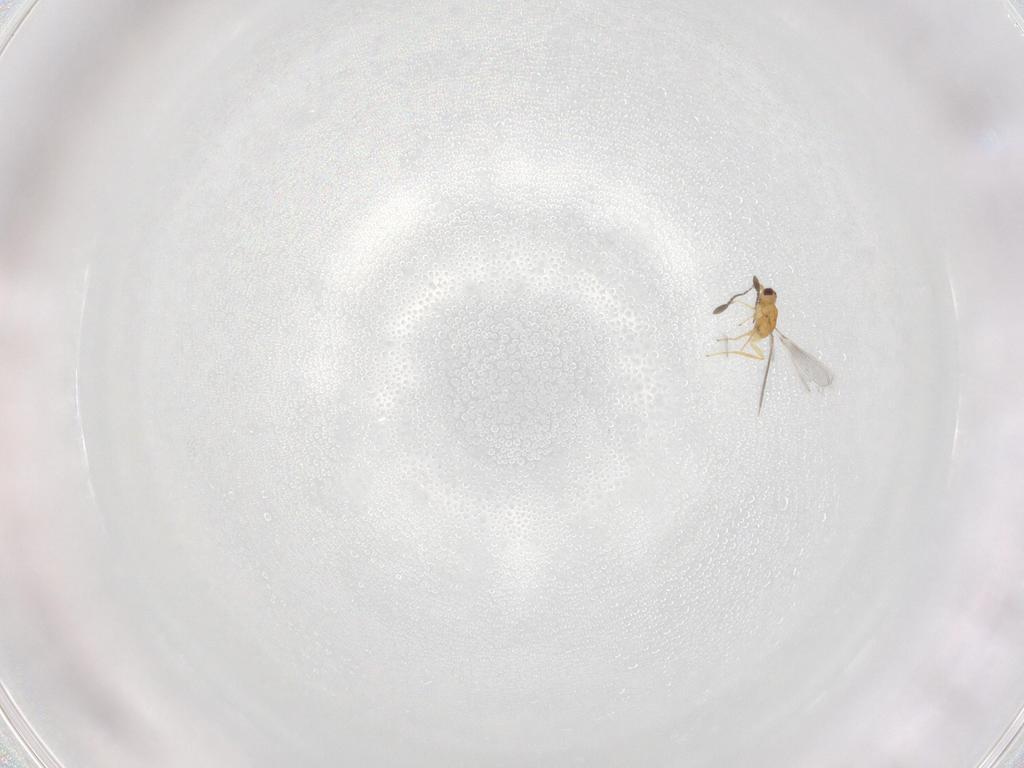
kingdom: Animalia
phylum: Arthropoda
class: Insecta
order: Hymenoptera
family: Mymaridae
